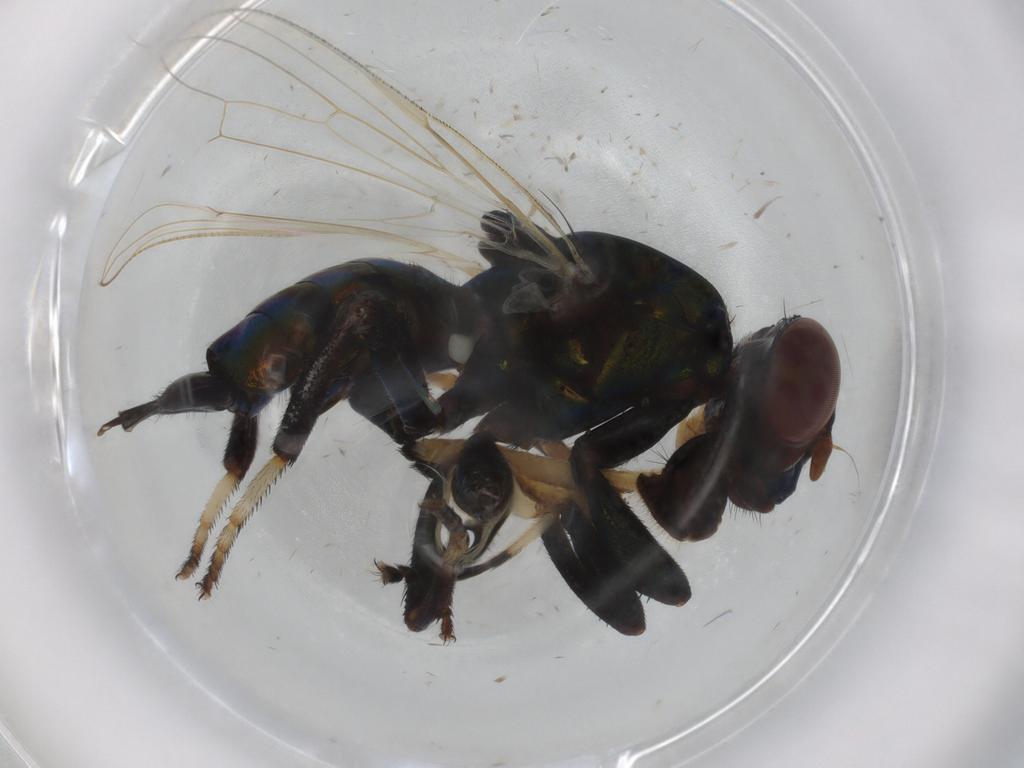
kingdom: Animalia
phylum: Arthropoda
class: Insecta
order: Diptera
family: Ulidiidae
